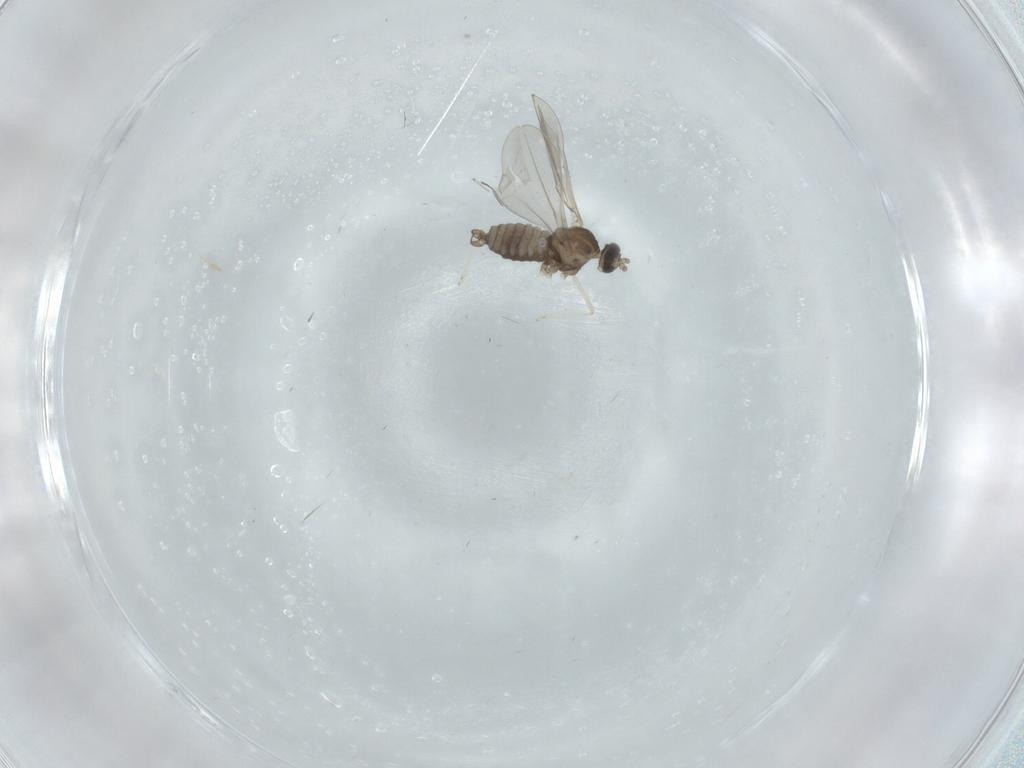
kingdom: Animalia
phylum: Arthropoda
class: Insecta
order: Diptera
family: Cecidomyiidae
